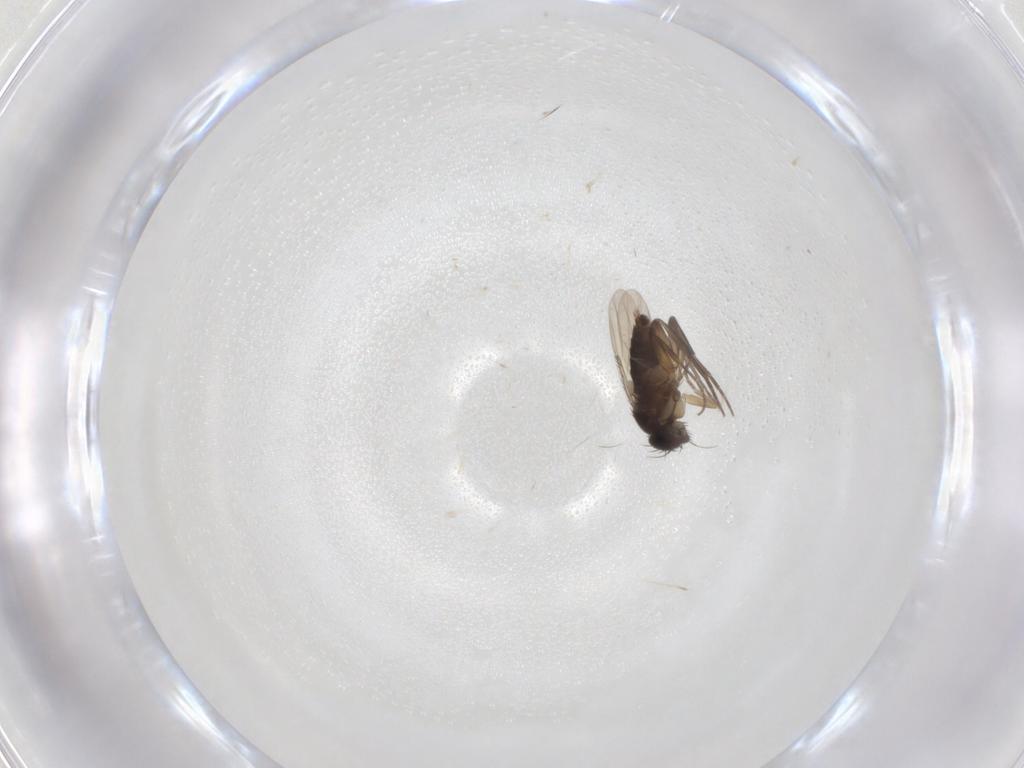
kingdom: Animalia
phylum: Arthropoda
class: Insecta
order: Diptera
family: Phoridae
